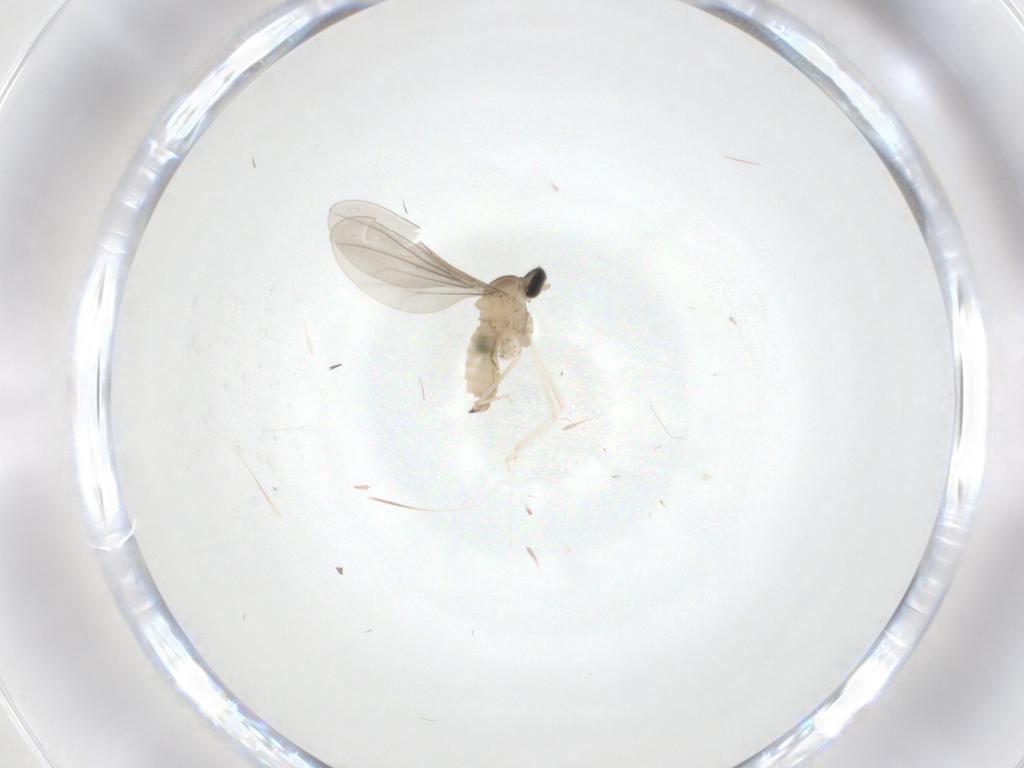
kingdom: Animalia
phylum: Arthropoda
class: Insecta
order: Diptera
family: Cecidomyiidae
